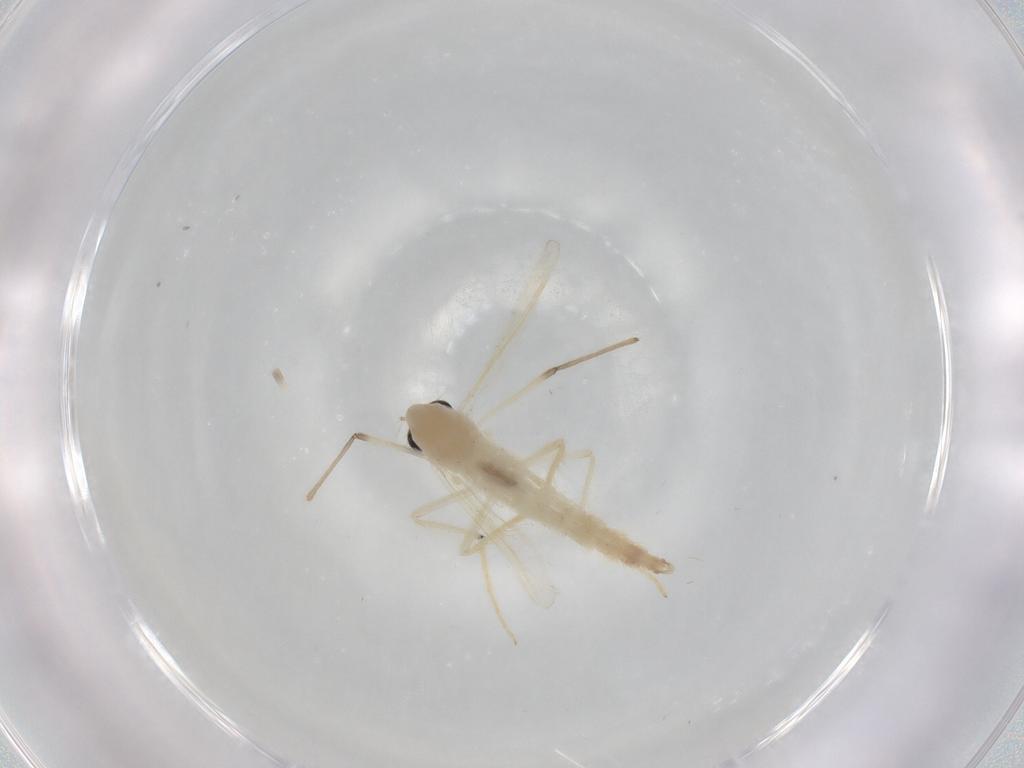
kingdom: Animalia
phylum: Arthropoda
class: Insecta
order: Diptera
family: Chironomidae
